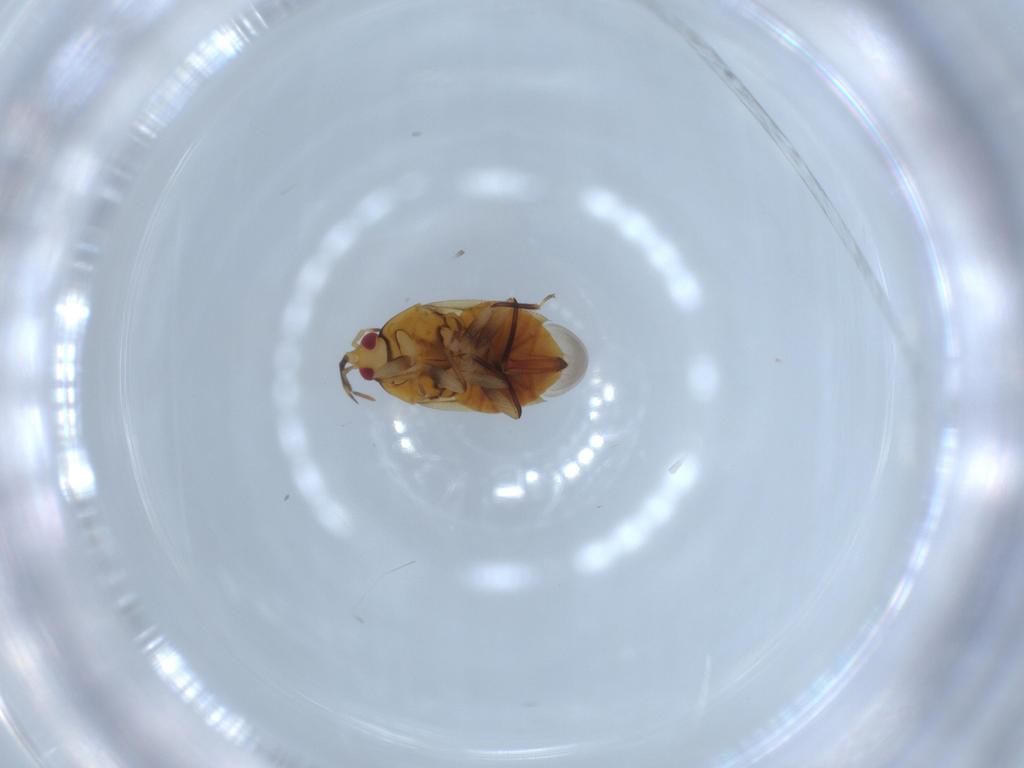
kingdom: Animalia
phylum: Arthropoda
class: Insecta
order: Hemiptera
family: Anthocoridae
